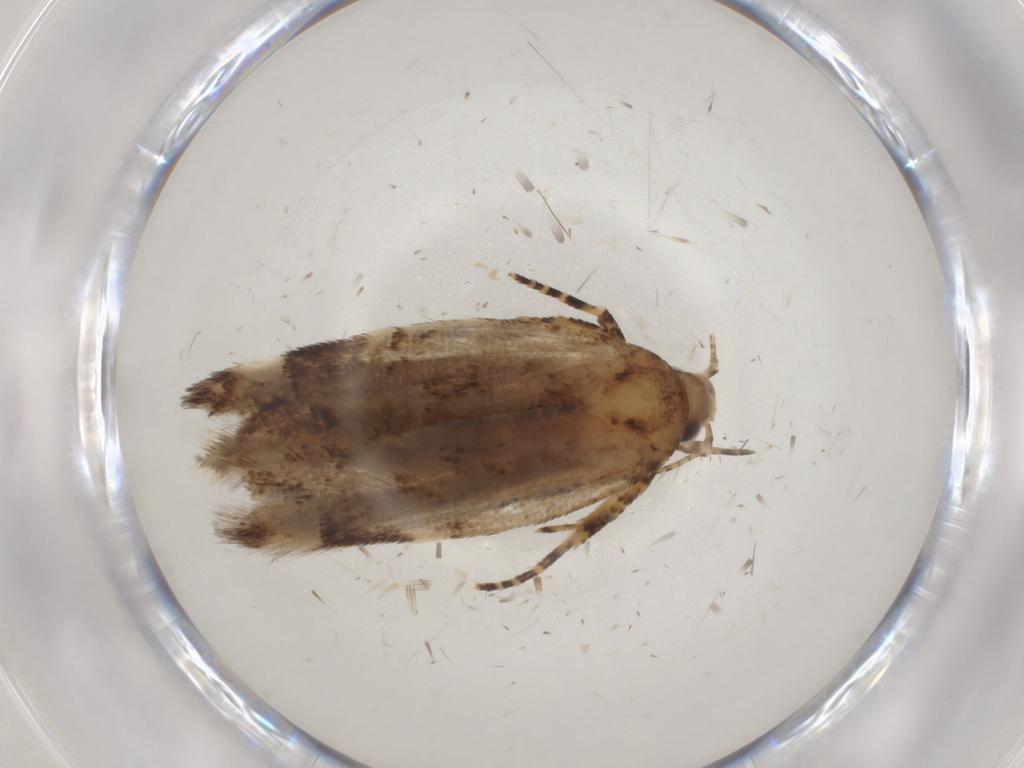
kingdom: Animalia
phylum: Arthropoda
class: Insecta
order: Lepidoptera
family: Gelechiidae
